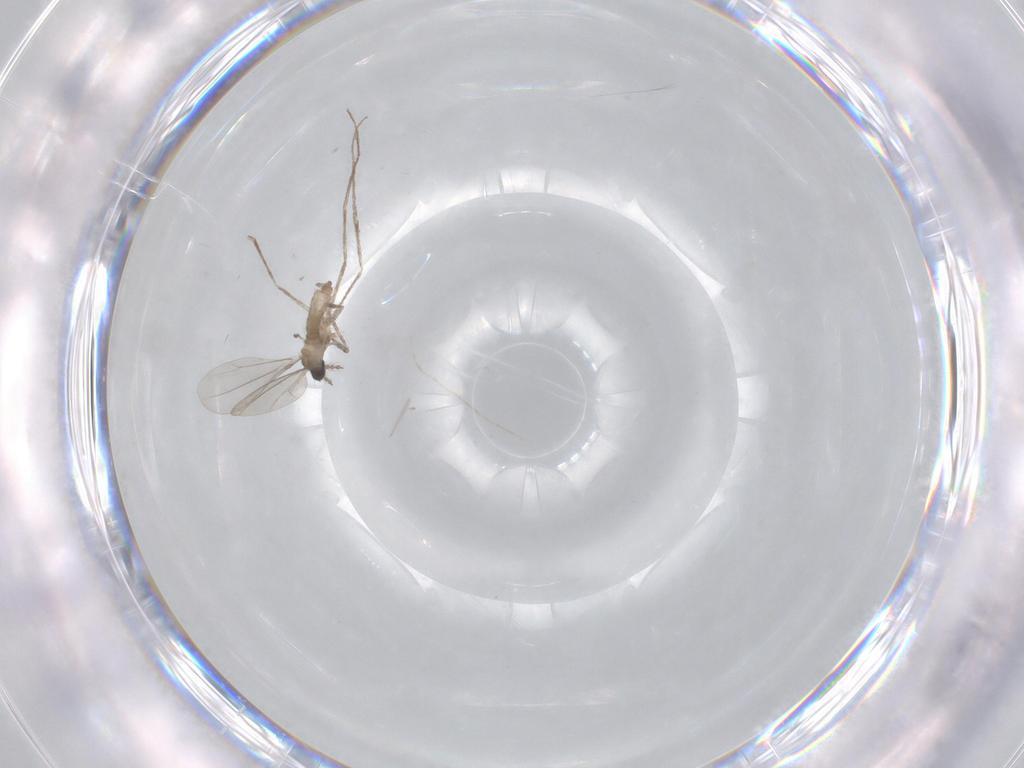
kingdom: Animalia
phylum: Arthropoda
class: Insecta
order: Diptera
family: Cecidomyiidae
